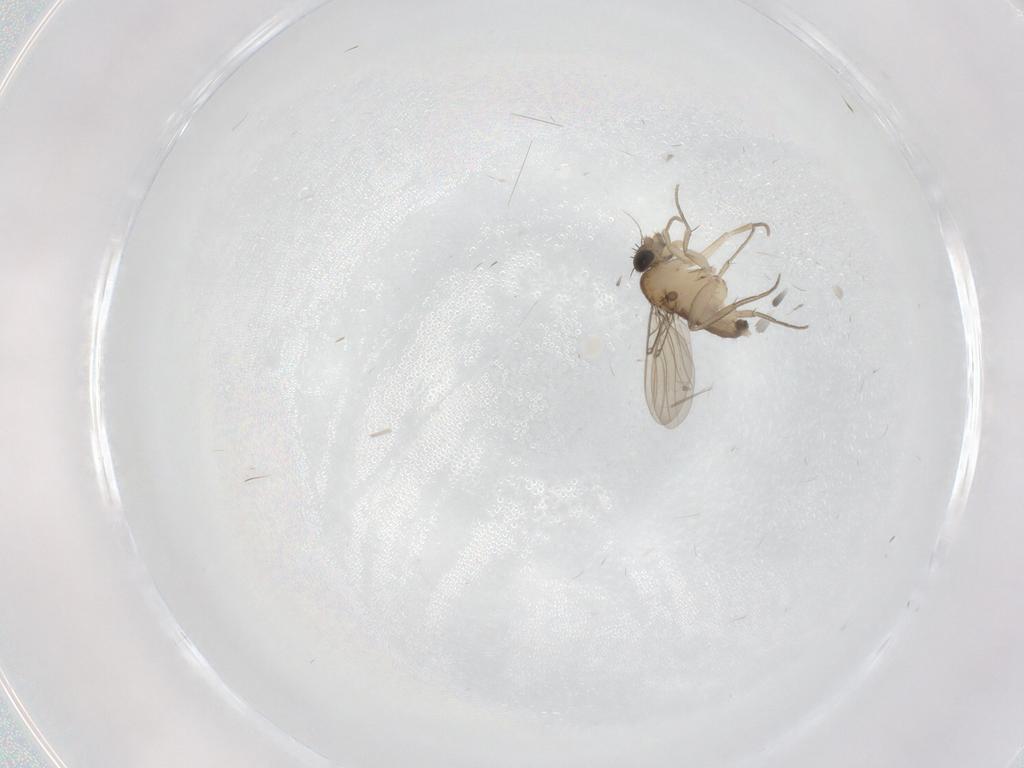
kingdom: Animalia
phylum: Arthropoda
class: Insecta
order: Diptera
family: Phoridae
